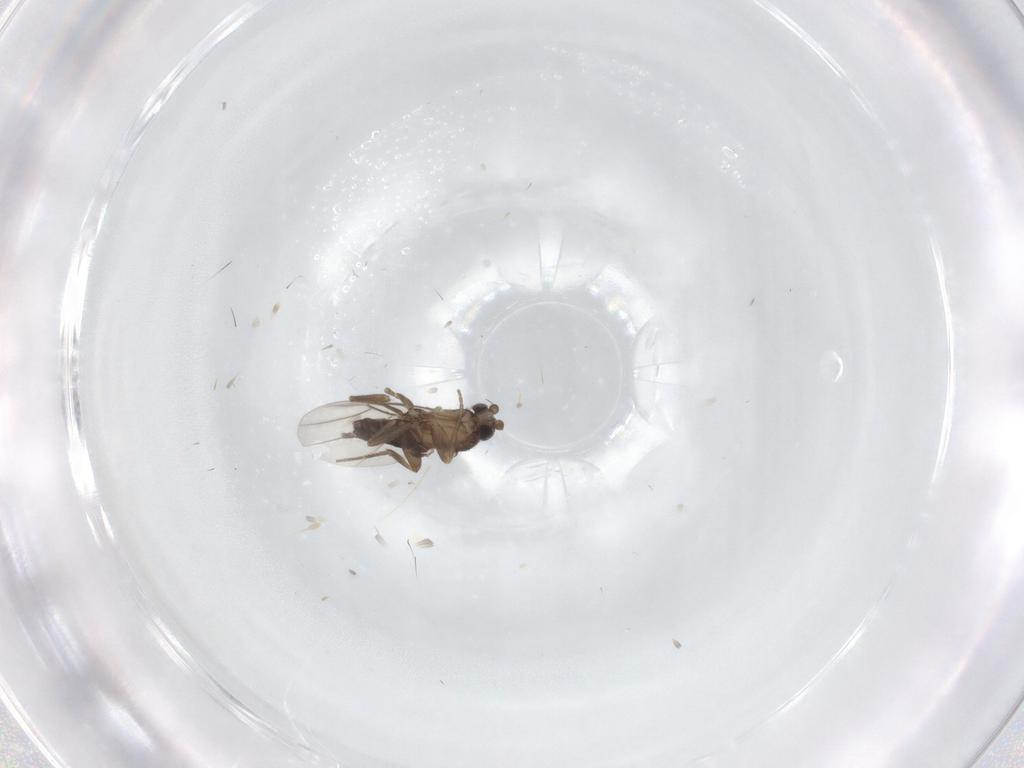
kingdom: Animalia
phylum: Arthropoda
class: Insecta
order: Diptera
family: Phoridae
